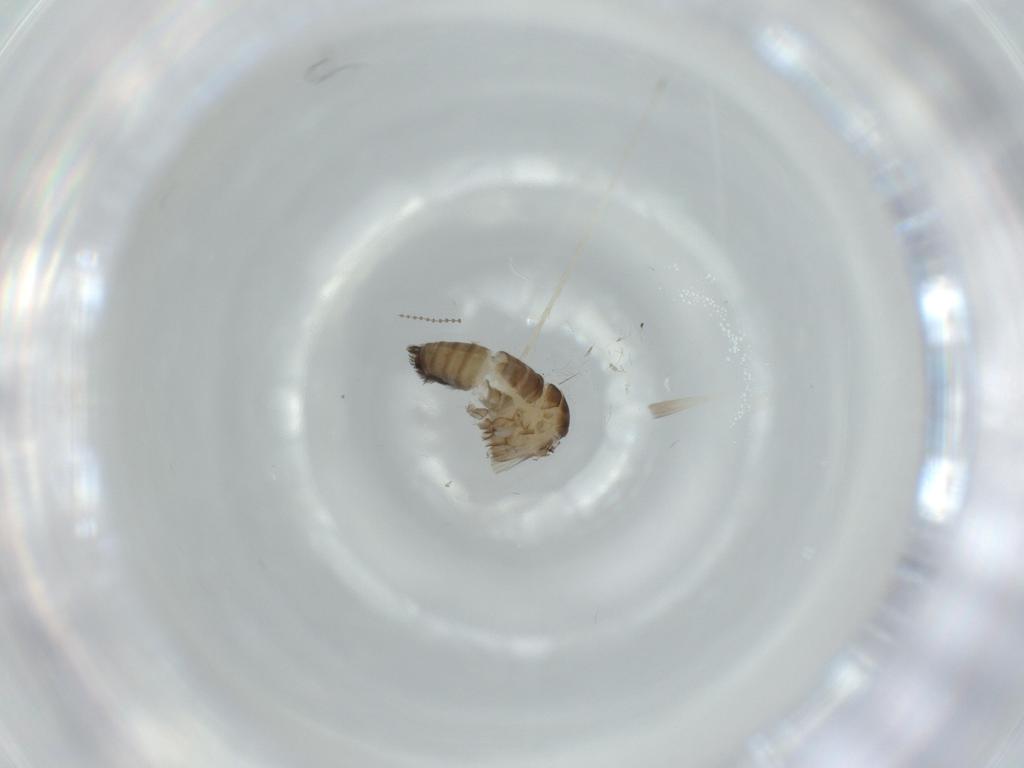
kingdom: Animalia
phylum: Arthropoda
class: Insecta
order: Diptera
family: Psychodidae
